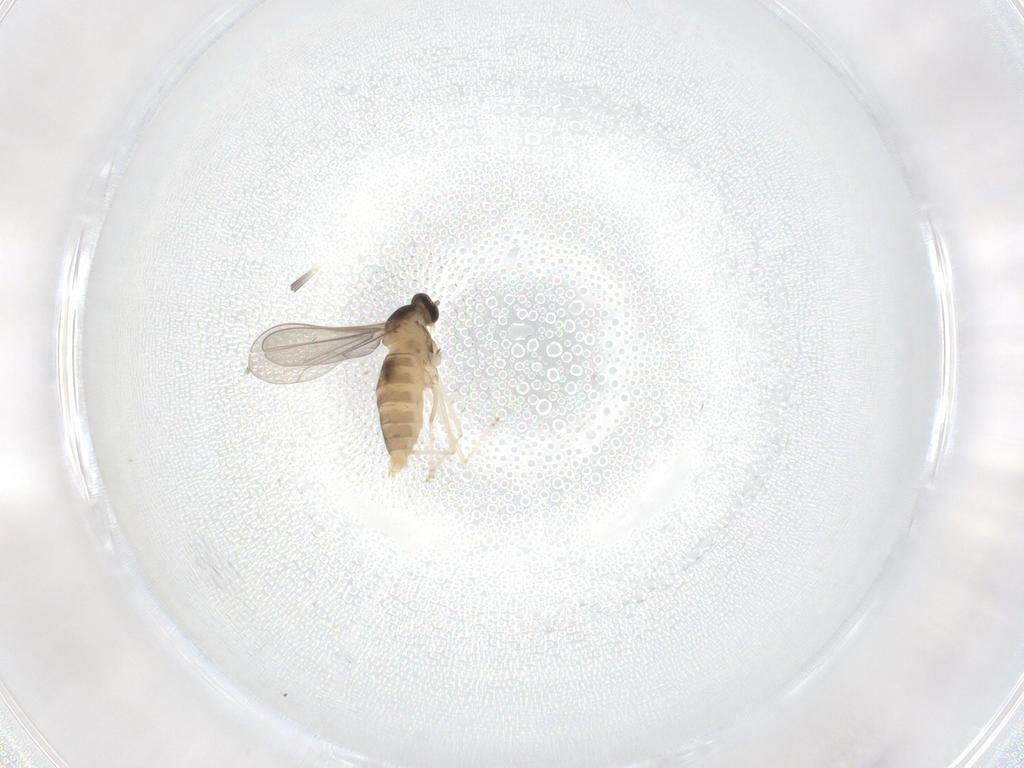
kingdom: Animalia
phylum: Arthropoda
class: Insecta
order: Diptera
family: Cecidomyiidae
